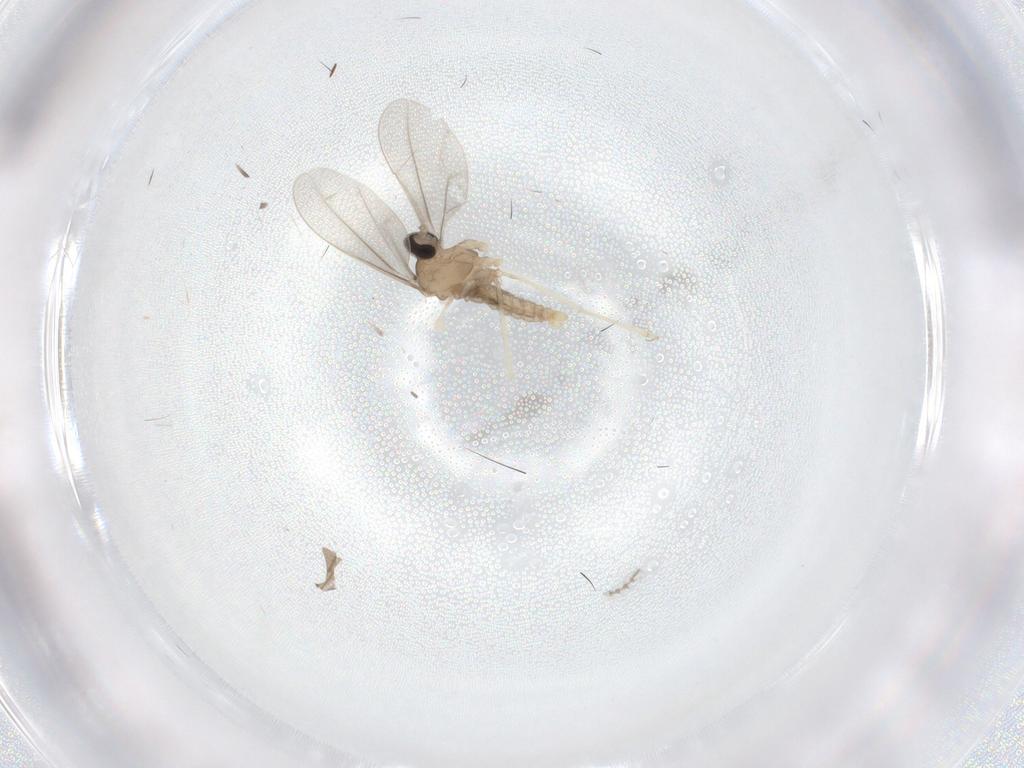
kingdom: Animalia
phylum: Arthropoda
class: Insecta
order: Diptera
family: Cecidomyiidae
